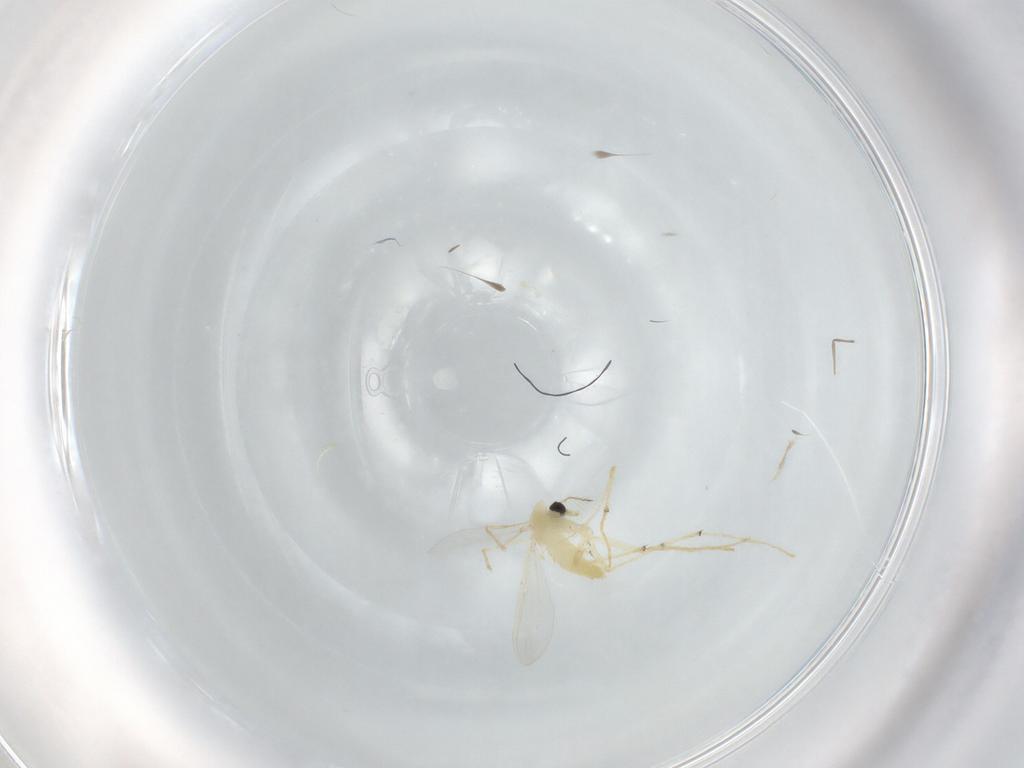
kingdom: Animalia
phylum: Arthropoda
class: Insecta
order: Diptera
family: Chironomidae
